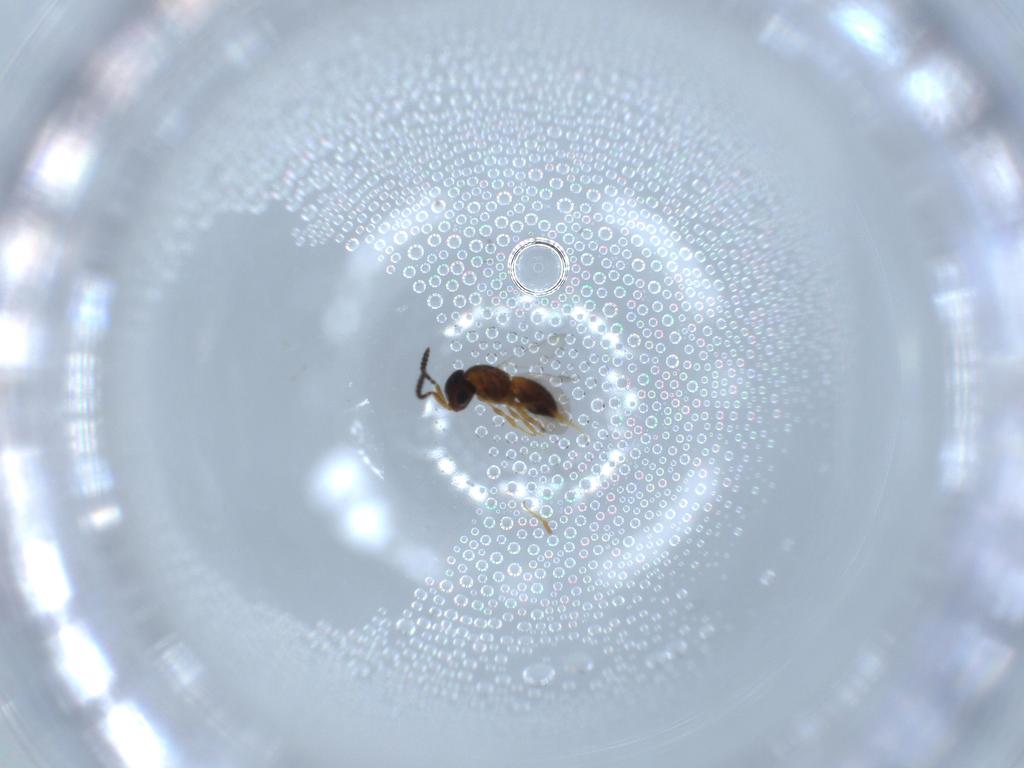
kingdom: Animalia
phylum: Arthropoda
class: Insecta
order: Hymenoptera
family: Scelionidae
